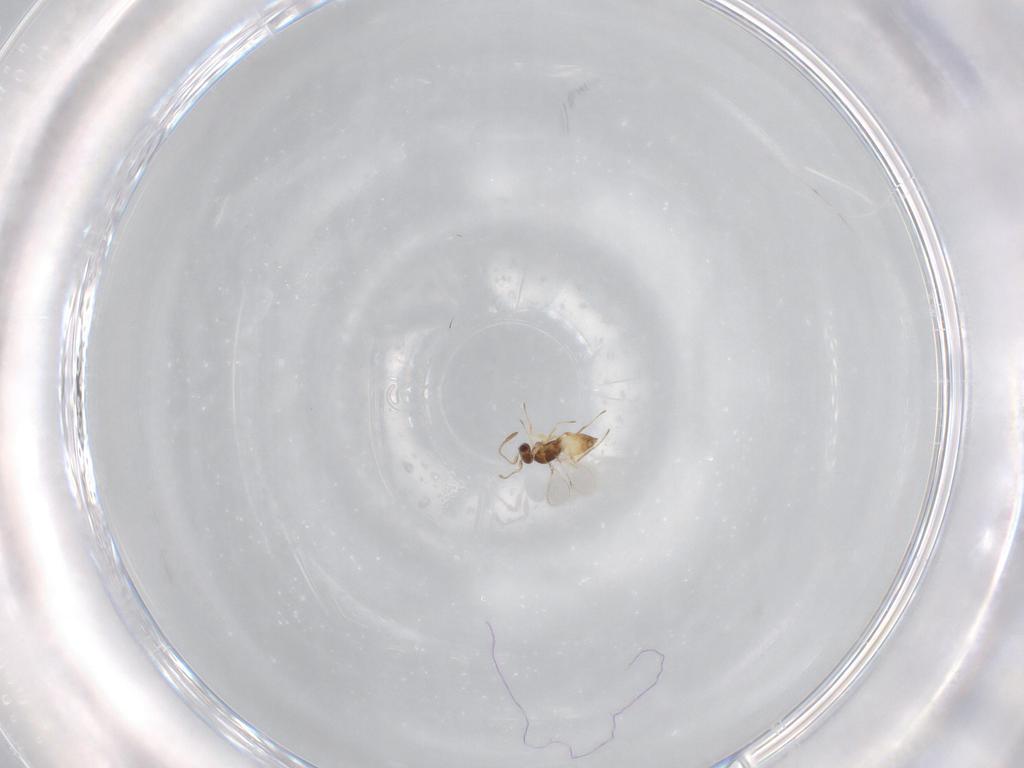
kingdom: Animalia
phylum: Arthropoda
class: Insecta
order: Hymenoptera
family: Mymaridae
